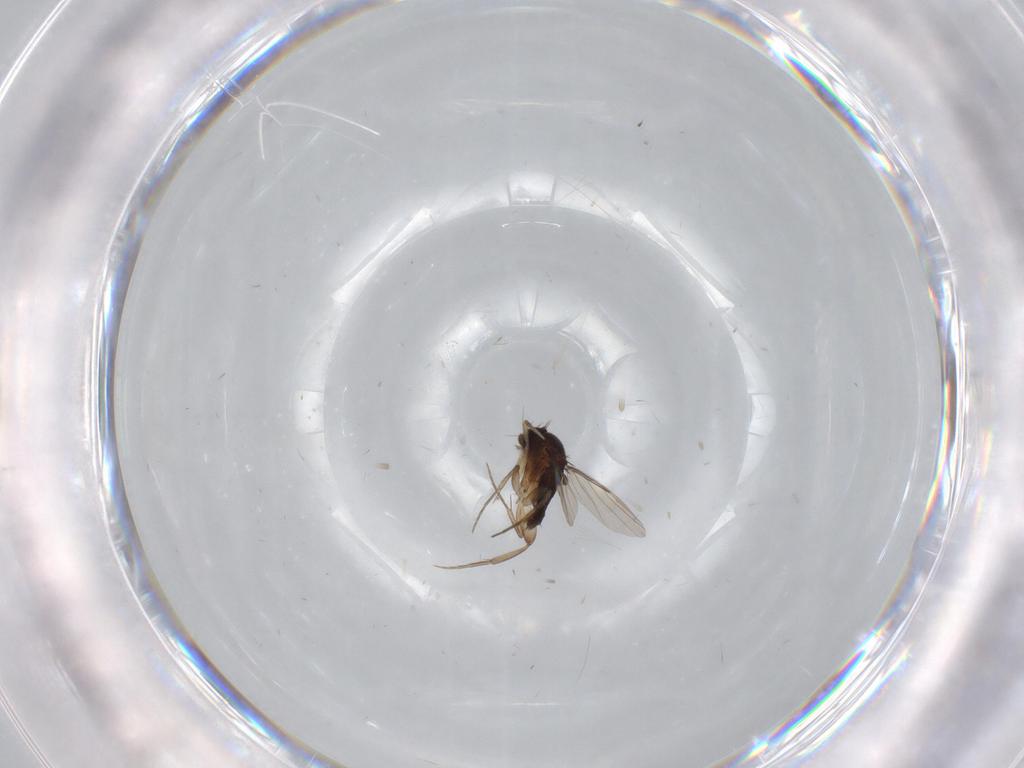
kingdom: Animalia
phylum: Arthropoda
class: Insecta
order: Diptera
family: Phoridae
